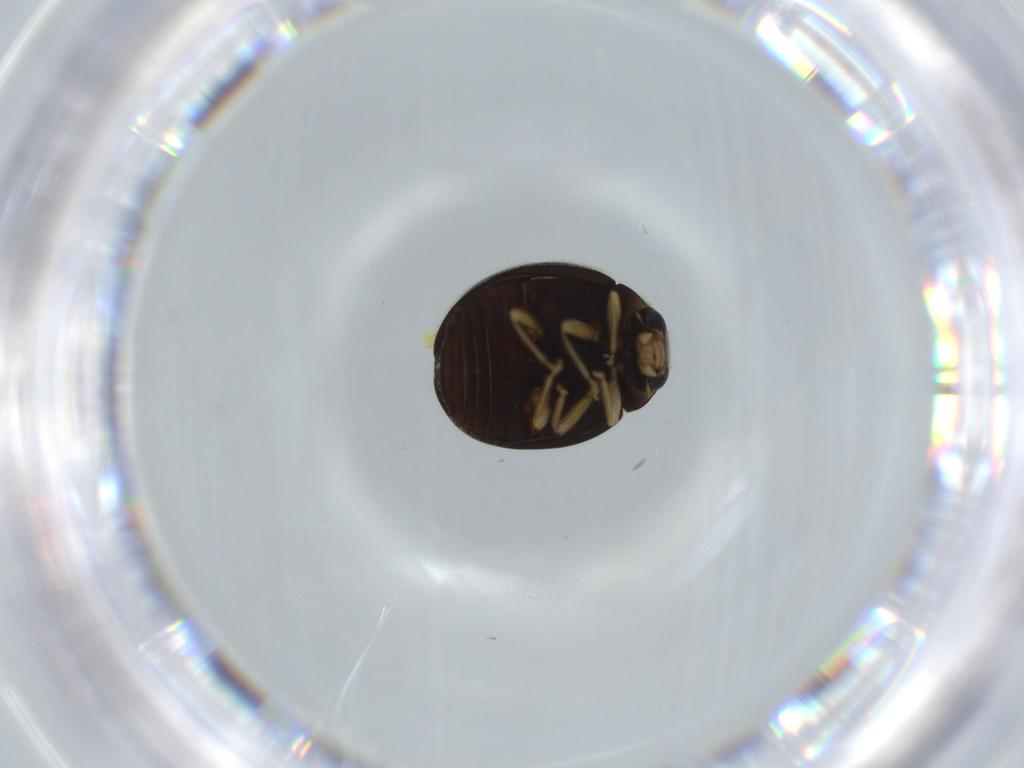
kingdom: Animalia
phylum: Arthropoda
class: Insecta
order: Coleoptera
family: Coccinellidae
